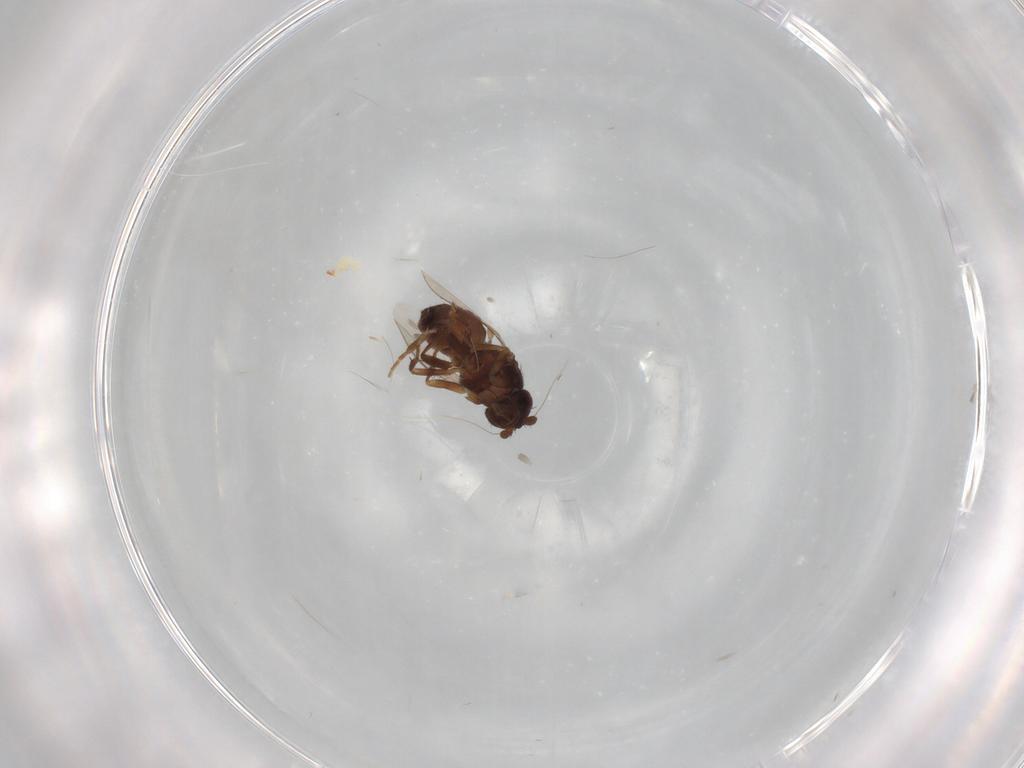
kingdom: Animalia
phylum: Arthropoda
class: Insecta
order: Diptera
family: Sphaeroceridae
